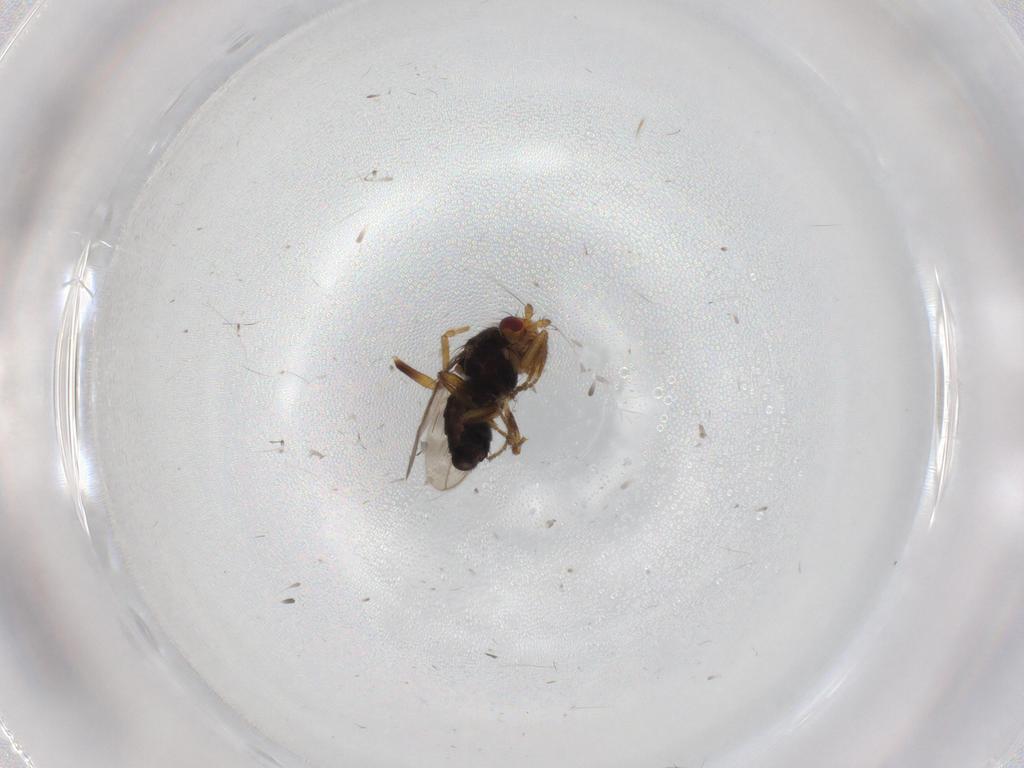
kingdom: Animalia
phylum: Arthropoda
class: Insecta
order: Diptera
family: Sphaeroceridae
